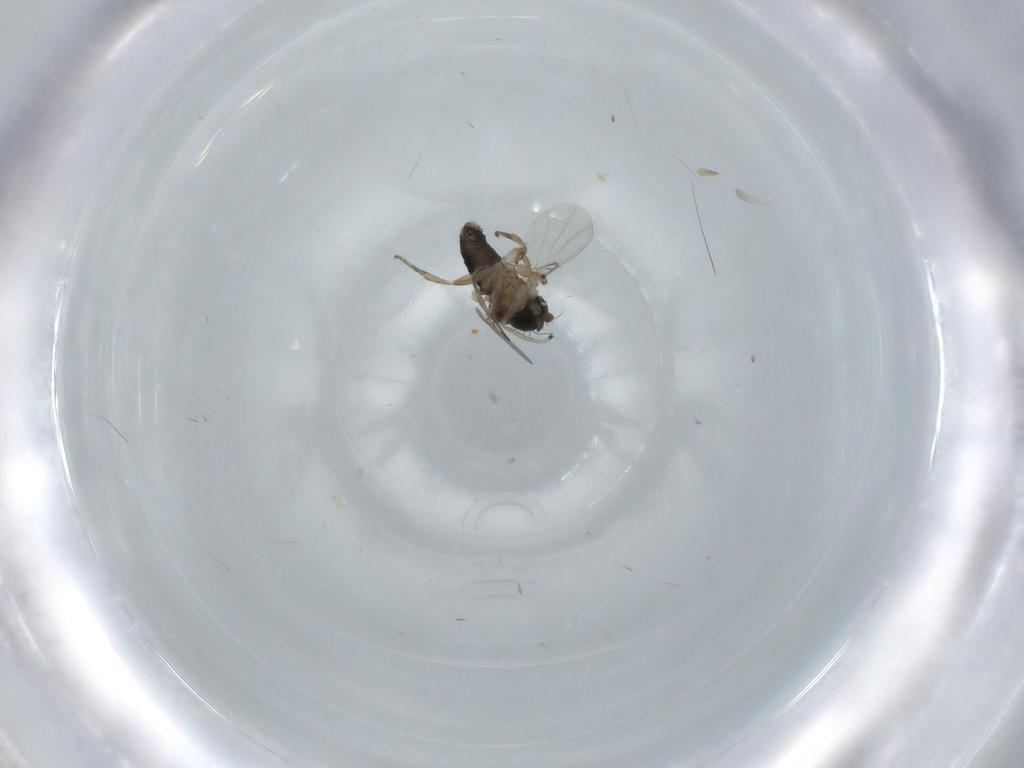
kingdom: Animalia
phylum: Arthropoda
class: Insecta
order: Diptera
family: Phoridae
